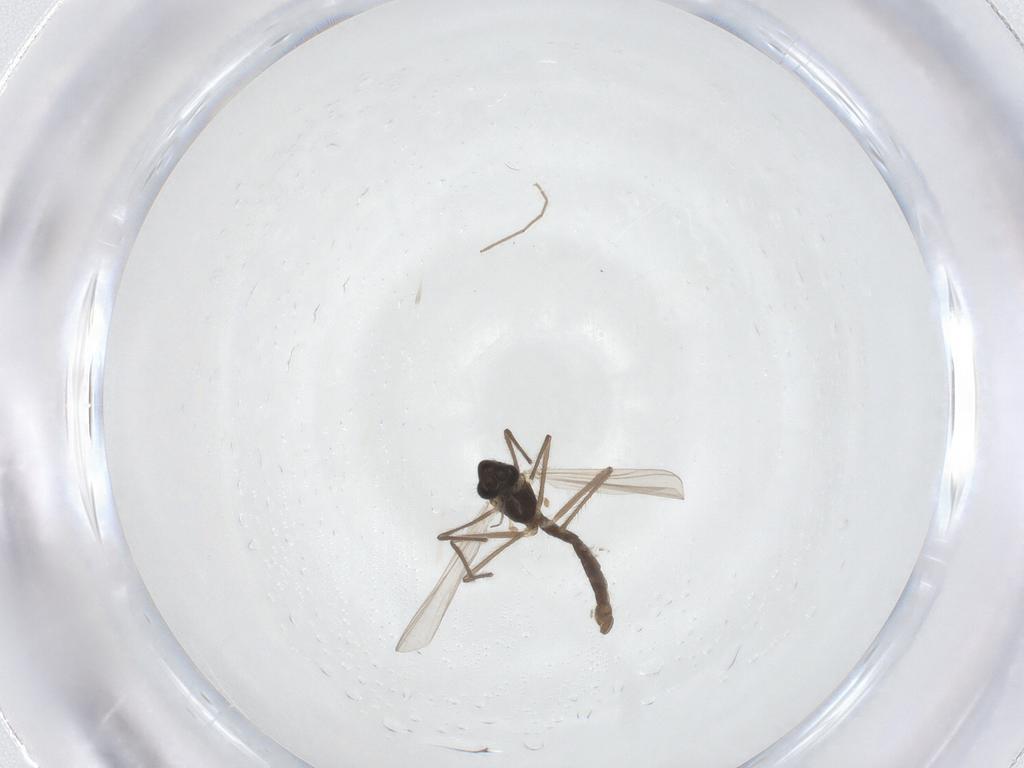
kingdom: Animalia
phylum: Arthropoda
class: Insecta
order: Diptera
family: Chironomidae
